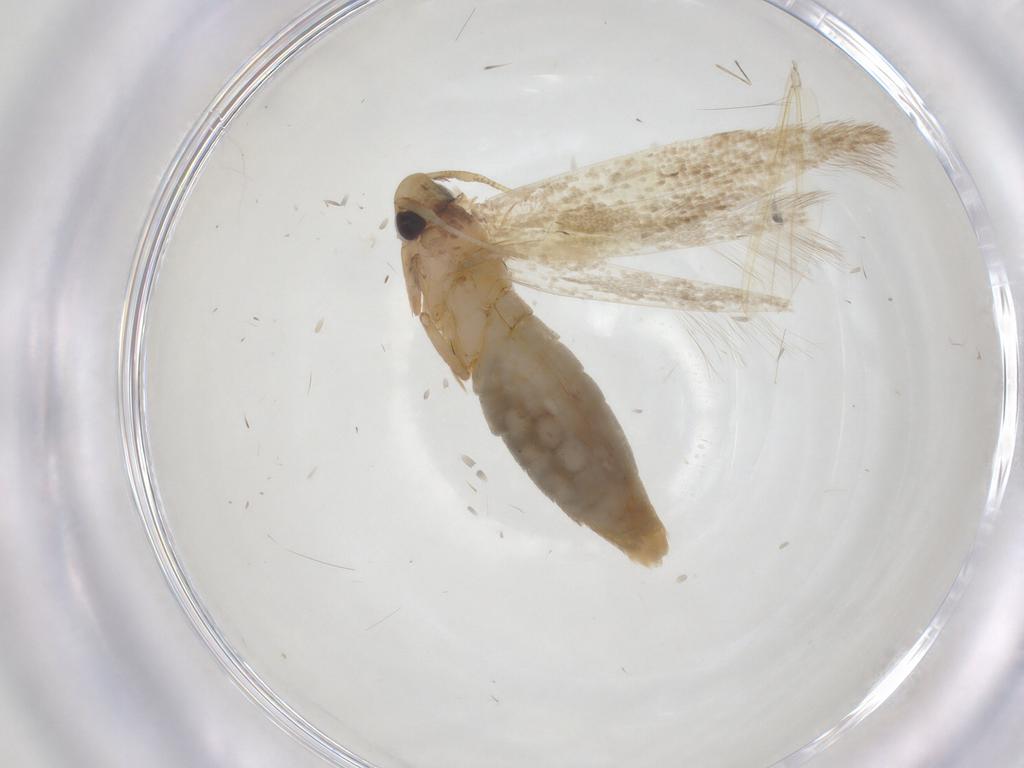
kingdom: Animalia
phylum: Arthropoda
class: Insecta
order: Lepidoptera
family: Tineidae
